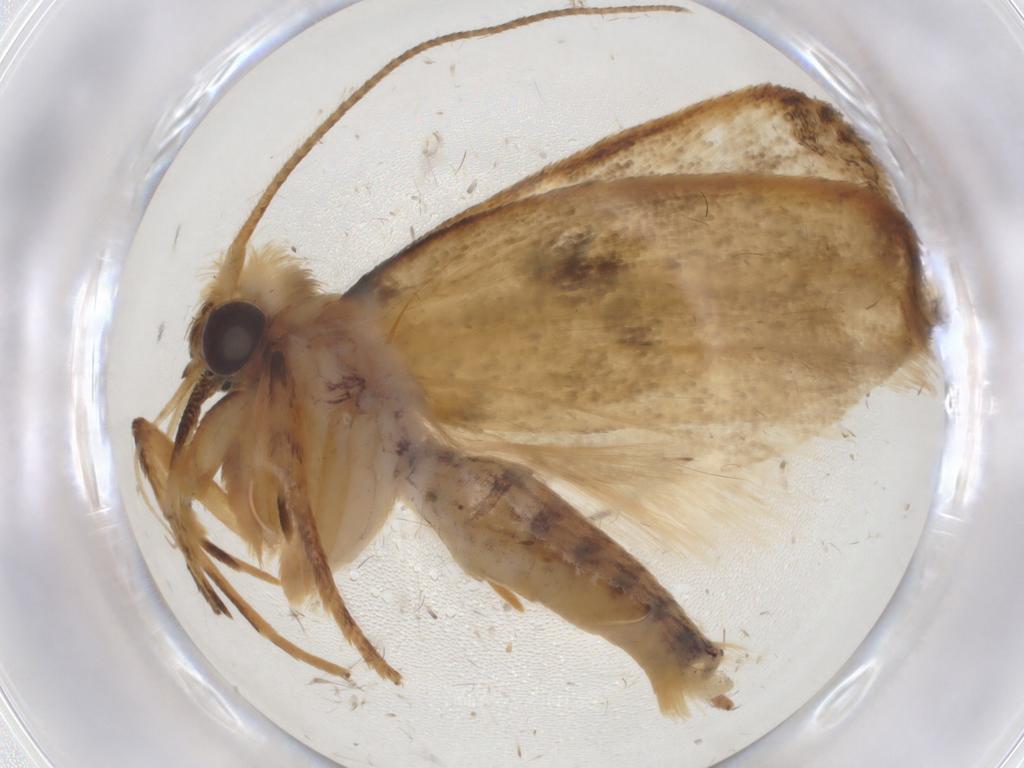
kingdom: Animalia
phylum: Arthropoda
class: Insecta
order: Lepidoptera
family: Depressariidae
